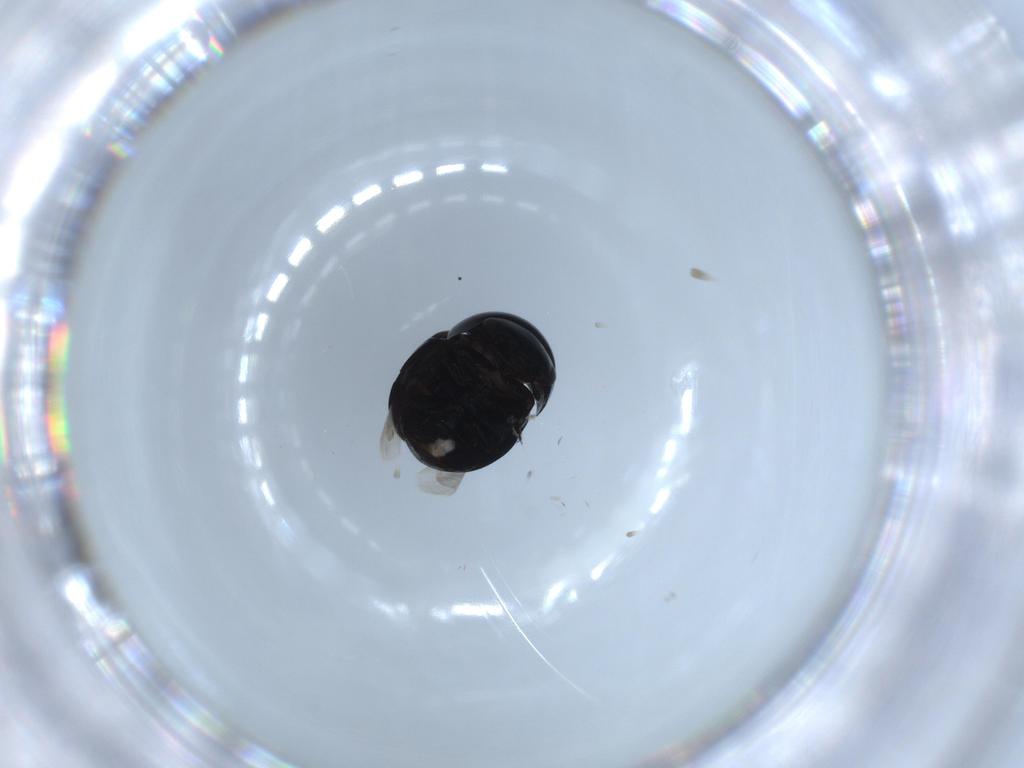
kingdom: Animalia
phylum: Arthropoda
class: Insecta
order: Coleoptera
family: Cybocephalidae
